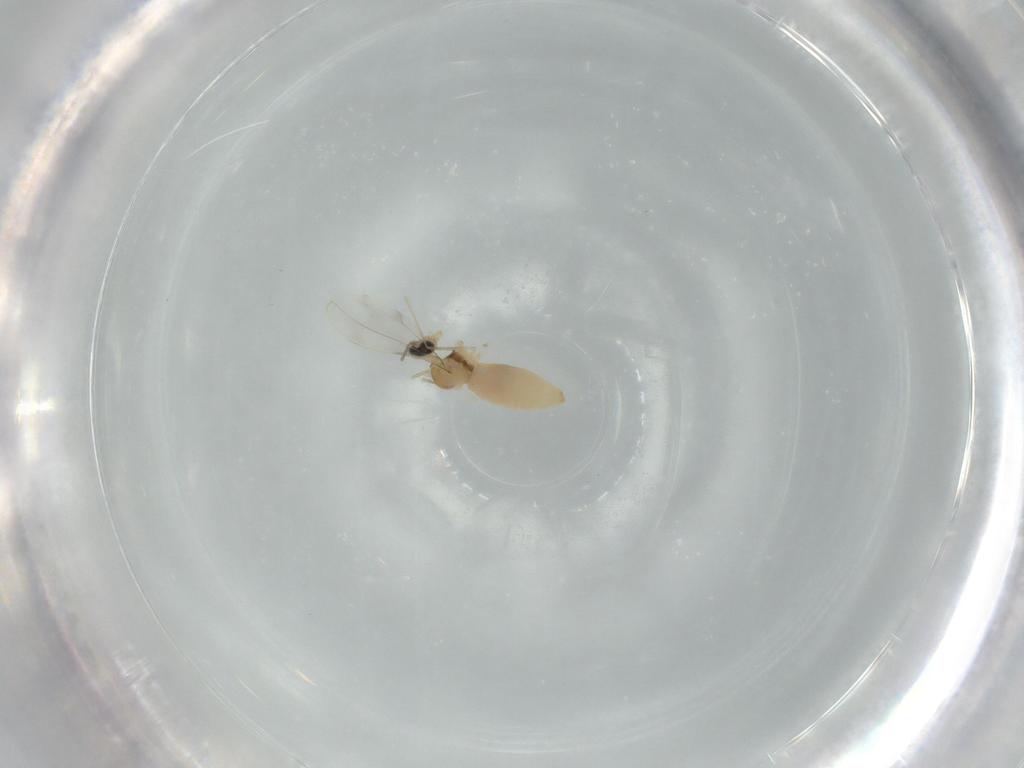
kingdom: Animalia
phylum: Arthropoda
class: Insecta
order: Diptera
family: Cecidomyiidae
